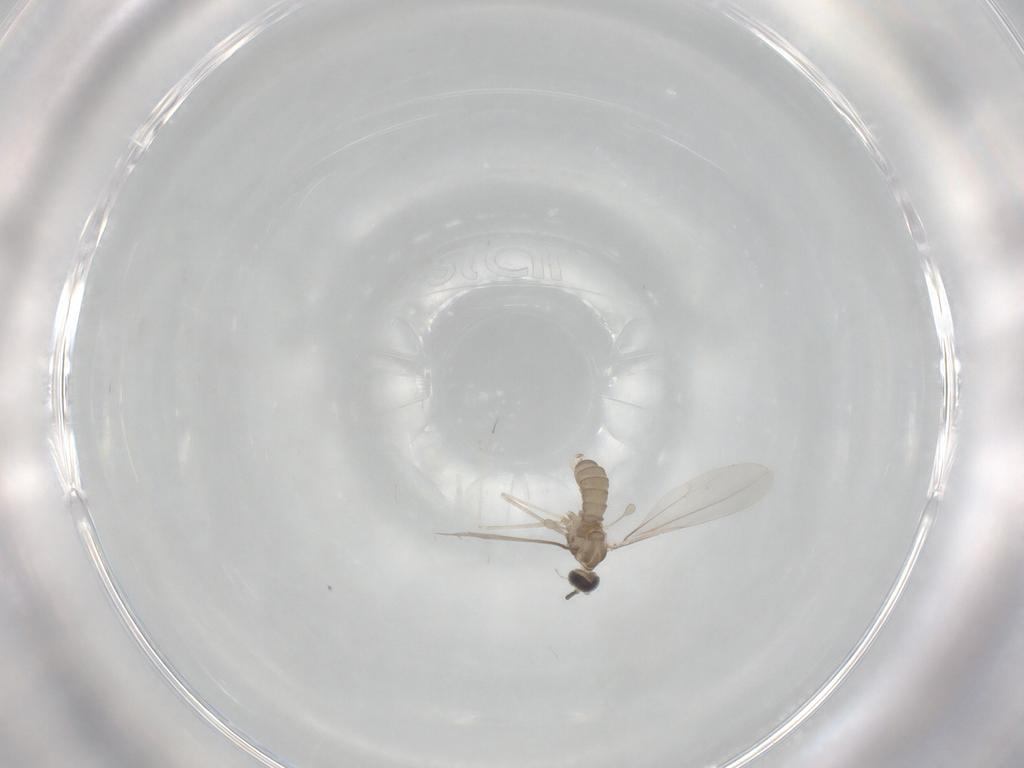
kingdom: Animalia
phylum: Arthropoda
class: Insecta
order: Diptera
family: Cecidomyiidae
